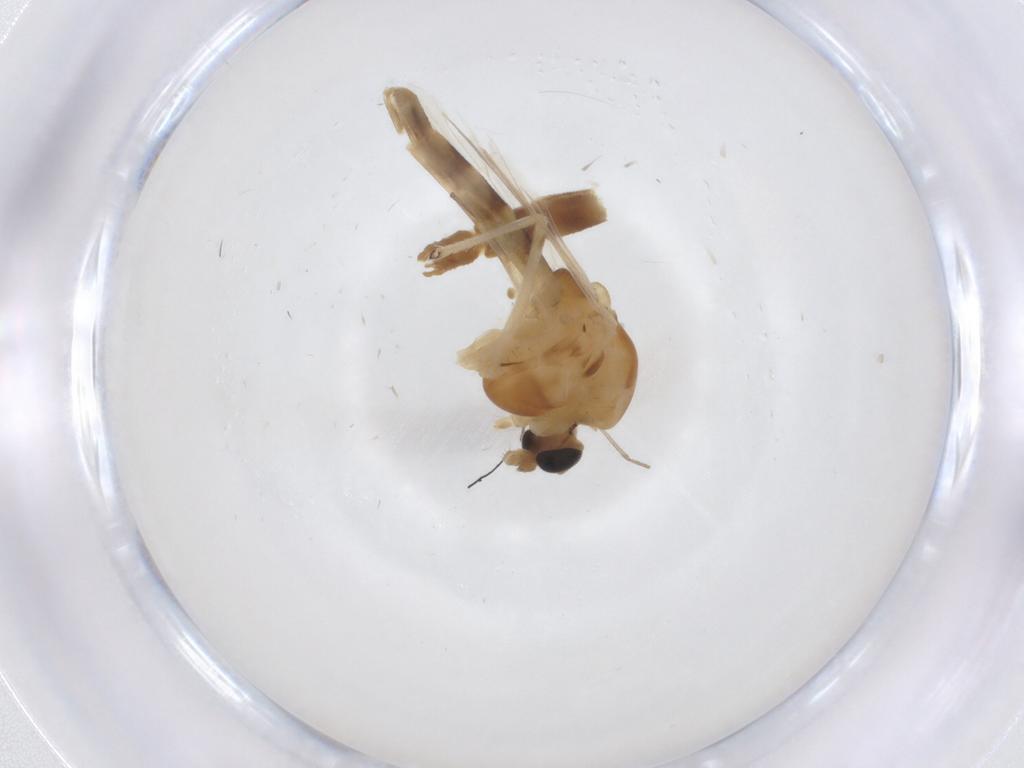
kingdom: Animalia
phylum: Arthropoda
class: Insecta
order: Diptera
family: Chironomidae
